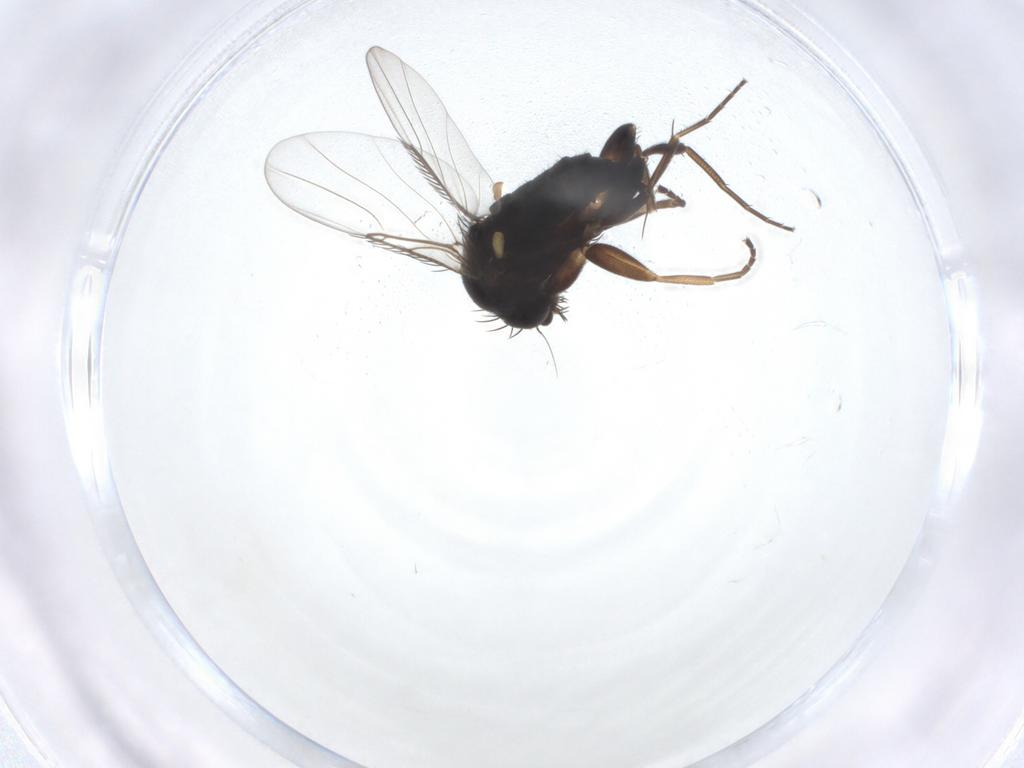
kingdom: Animalia
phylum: Arthropoda
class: Insecta
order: Diptera
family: Phoridae
